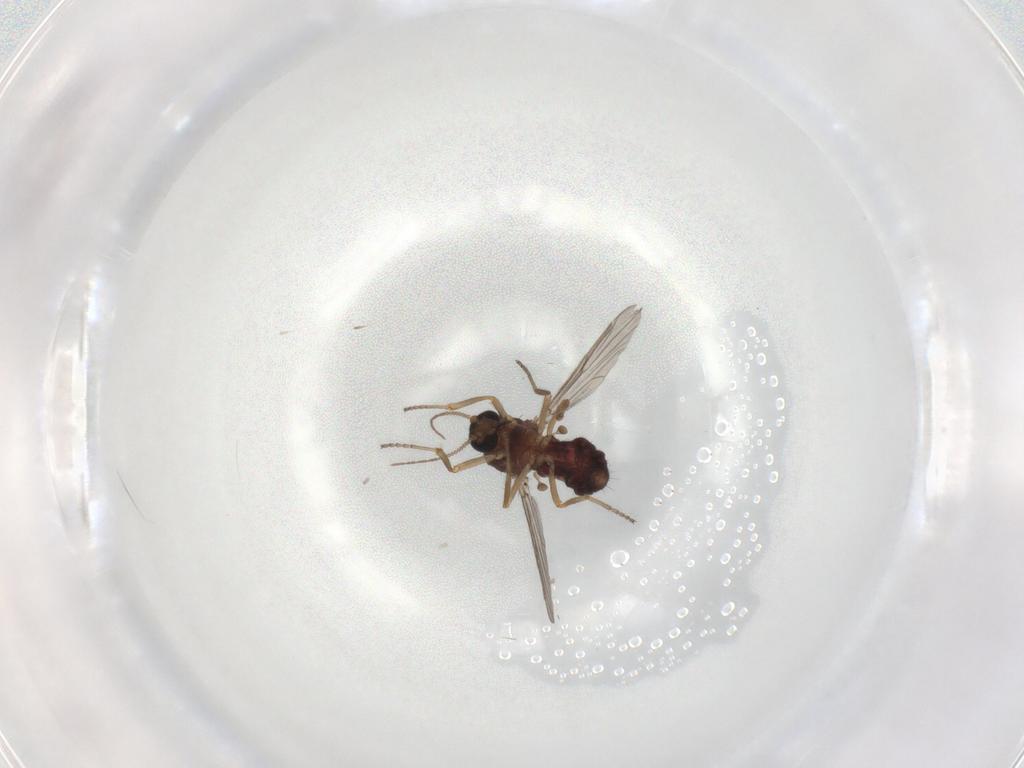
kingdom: Animalia
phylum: Arthropoda
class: Insecta
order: Diptera
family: Ceratopogonidae
